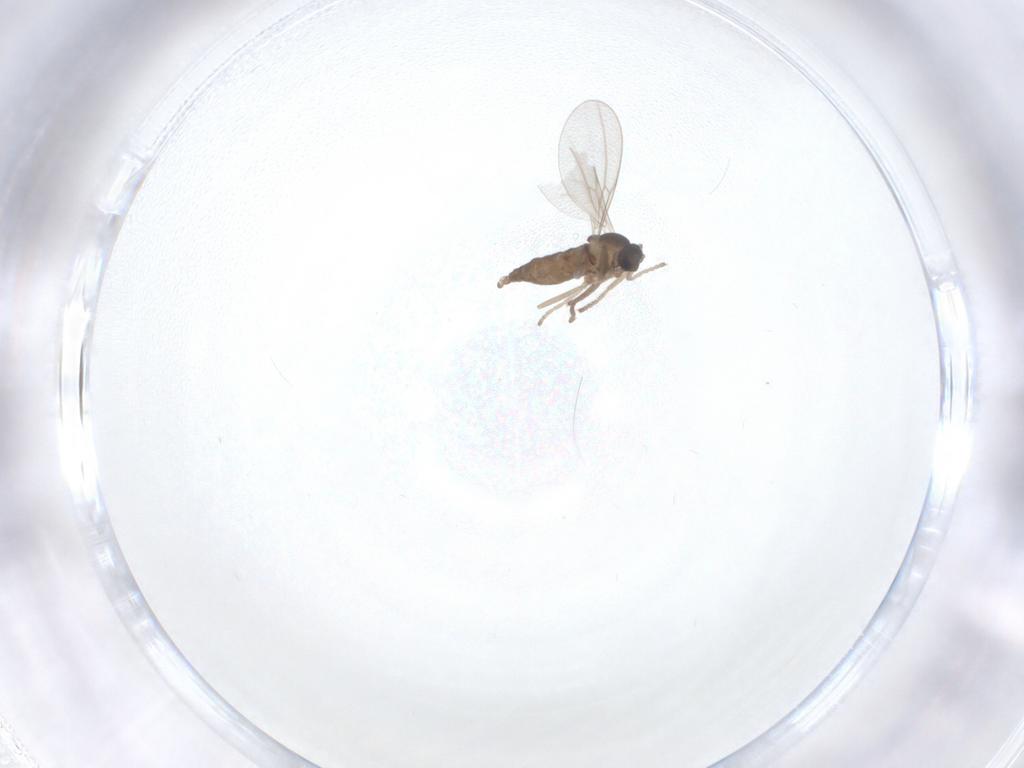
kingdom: Animalia
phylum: Arthropoda
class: Insecta
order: Diptera
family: Cecidomyiidae
